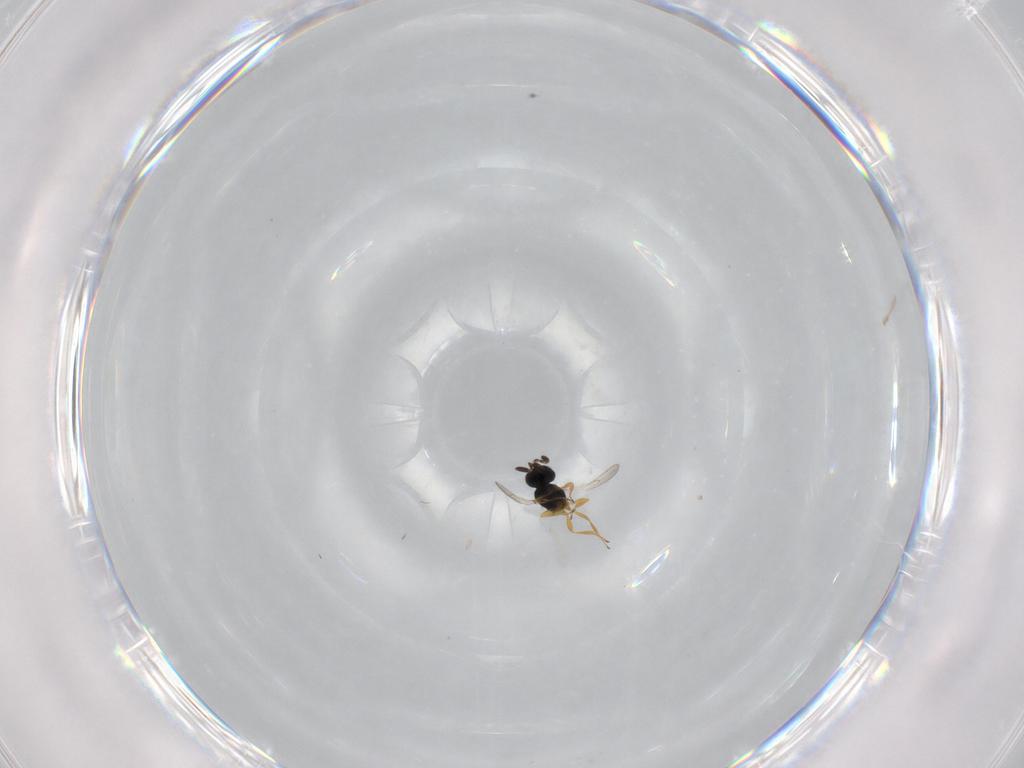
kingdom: Animalia
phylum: Arthropoda
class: Insecta
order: Hymenoptera
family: Scelionidae
